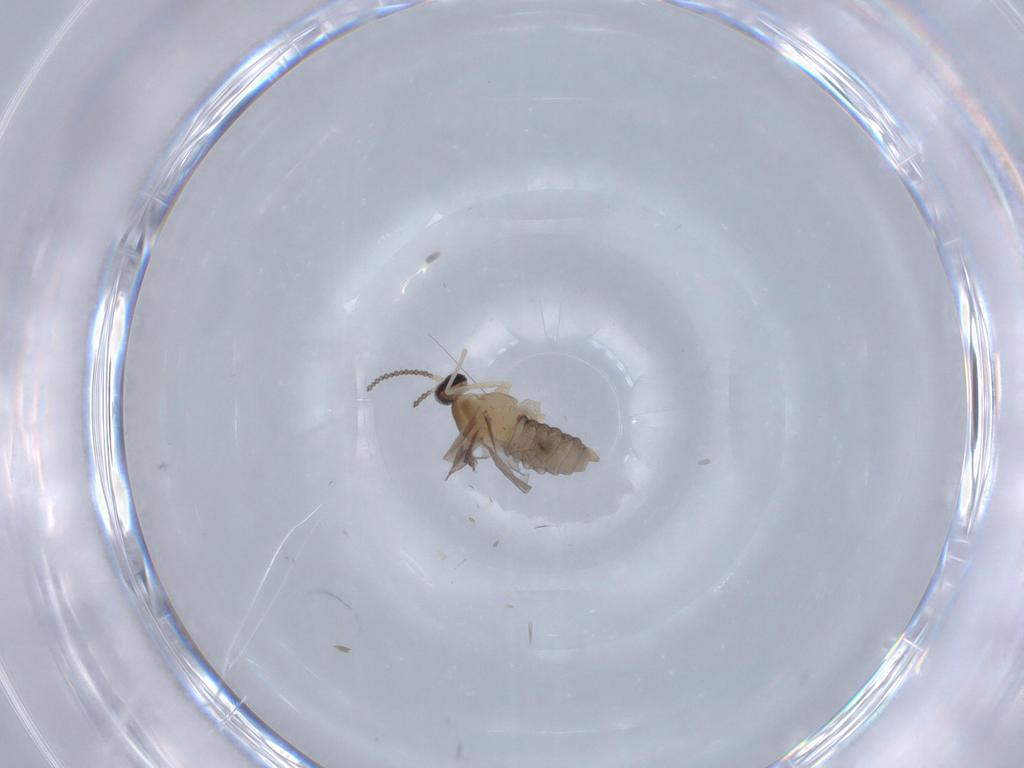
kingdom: Animalia
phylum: Arthropoda
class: Insecta
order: Diptera
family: Cecidomyiidae
